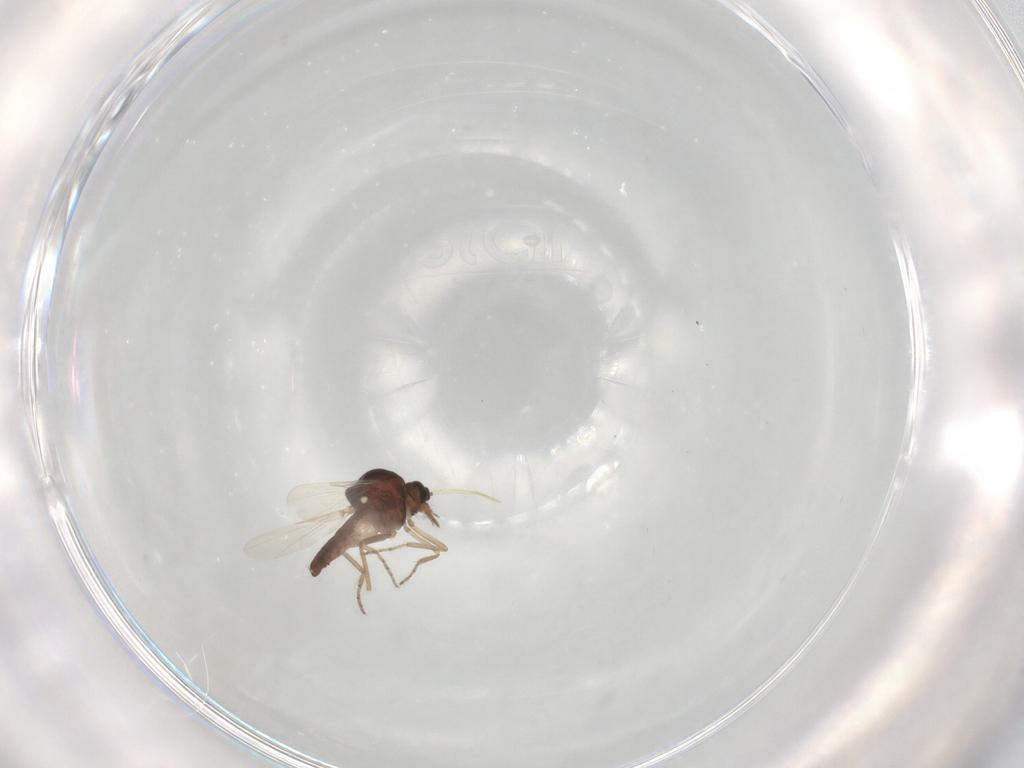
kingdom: Animalia
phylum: Arthropoda
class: Insecta
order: Diptera
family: Ceratopogonidae
